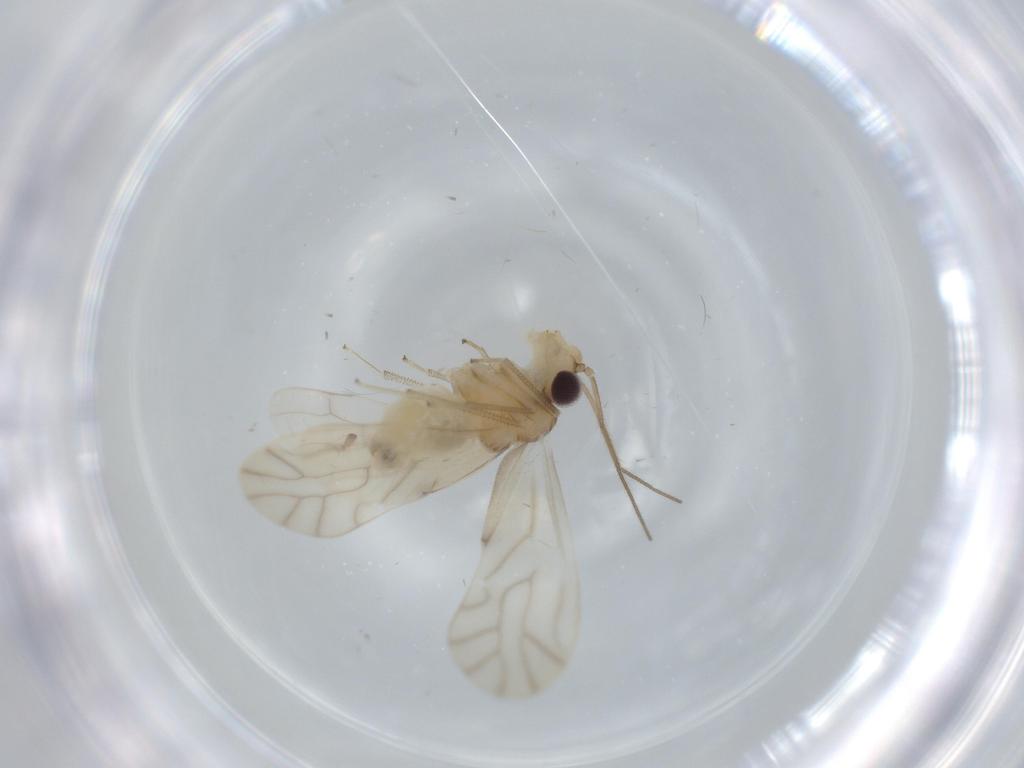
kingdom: Animalia
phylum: Arthropoda
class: Insecta
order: Psocodea
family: Caeciliusidae
